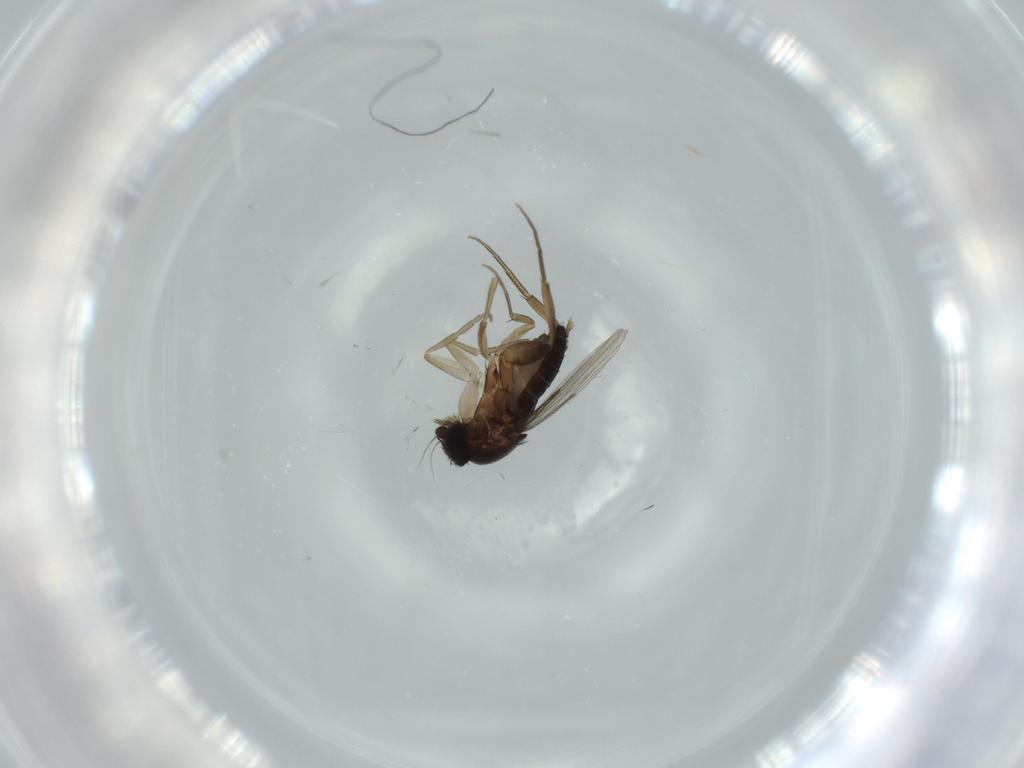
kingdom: Animalia
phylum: Arthropoda
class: Insecta
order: Diptera
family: Phoridae
